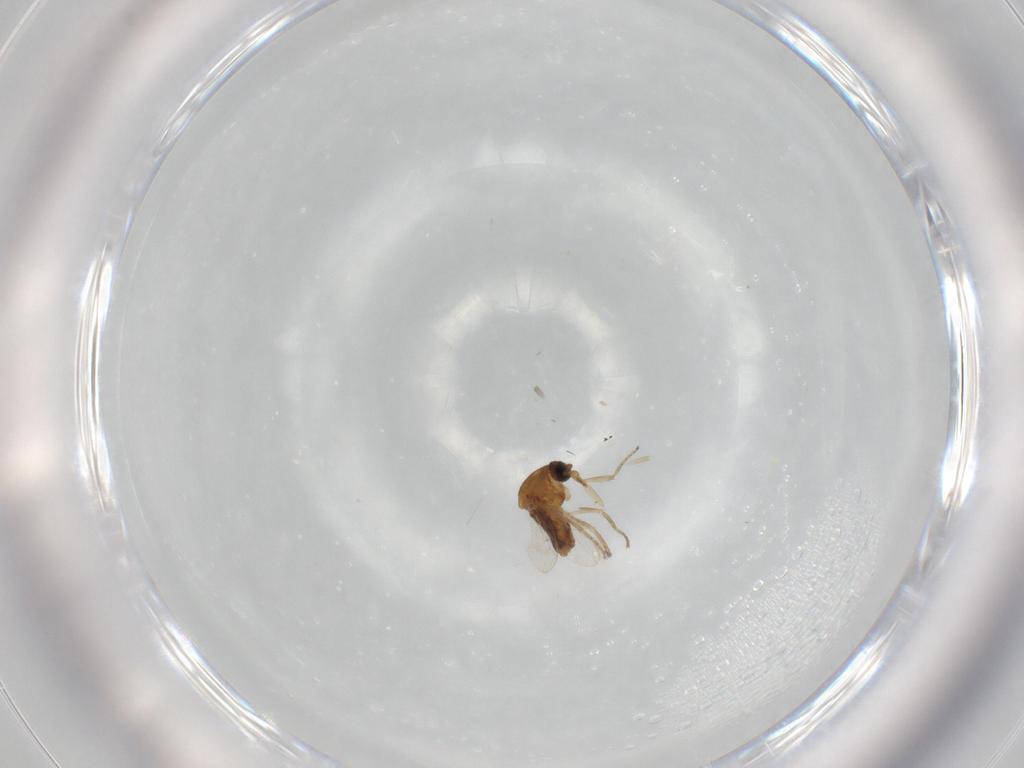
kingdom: Animalia
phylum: Arthropoda
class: Insecta
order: Diptera
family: Ceratopogonidae
